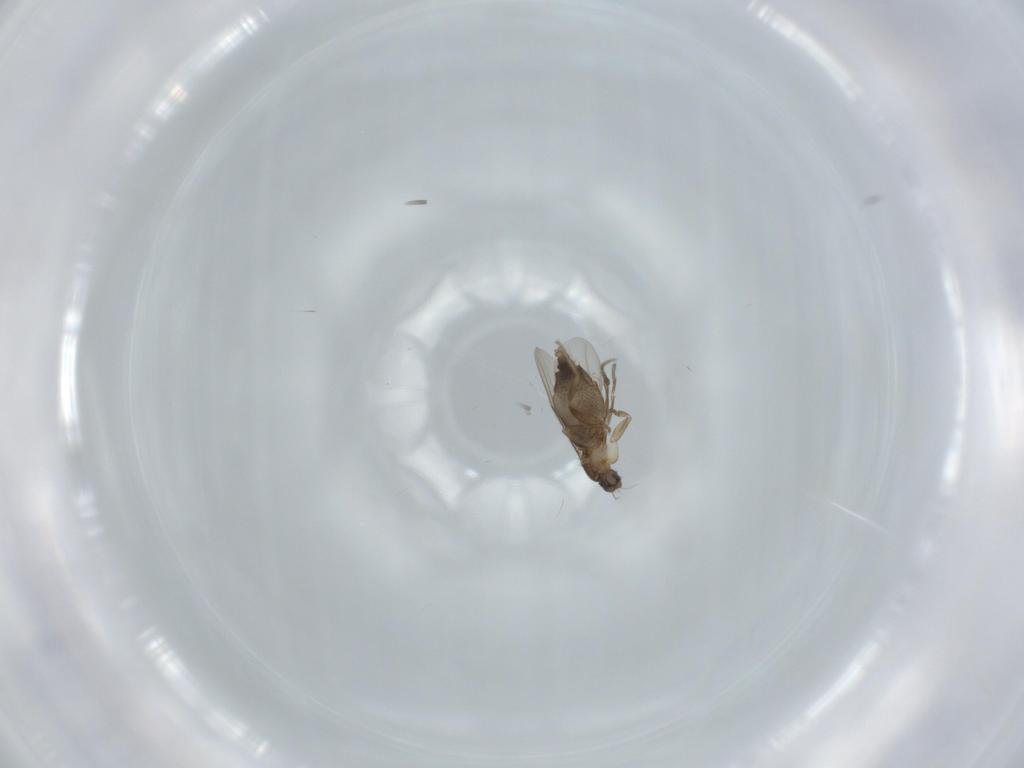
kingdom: Animalia
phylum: Arthropoda
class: Insecta
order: Diptera
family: Phoridae
